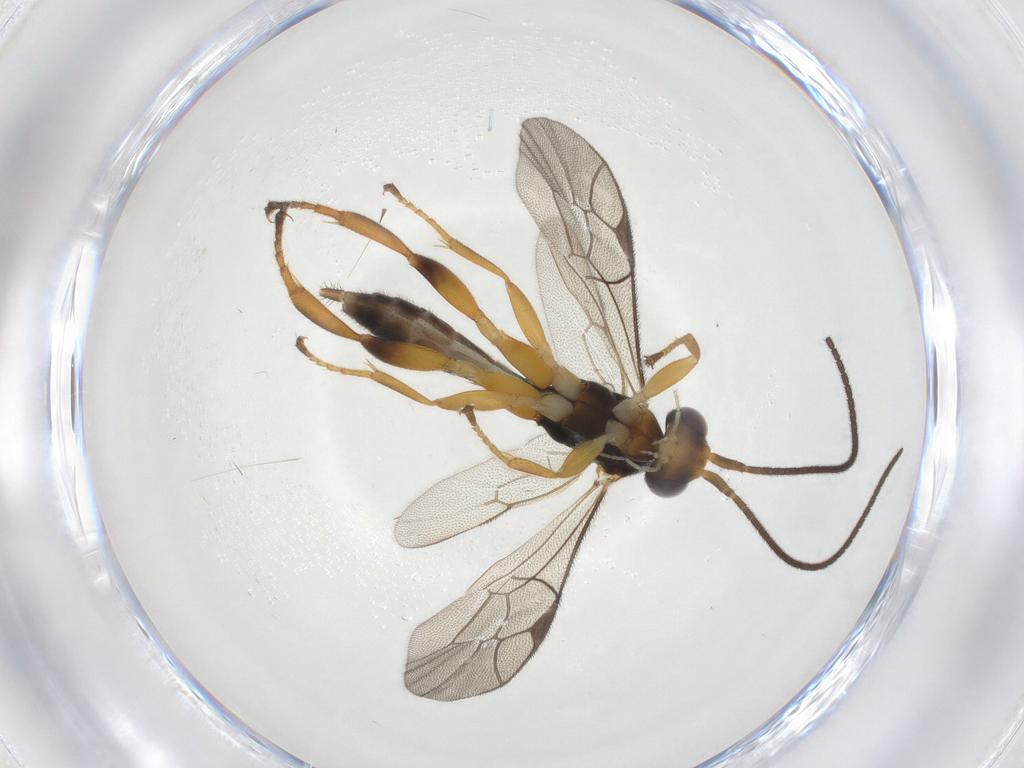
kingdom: Animalia
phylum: Arthropoda
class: Insecta
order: Hymenoptera
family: Ichneumonidae
